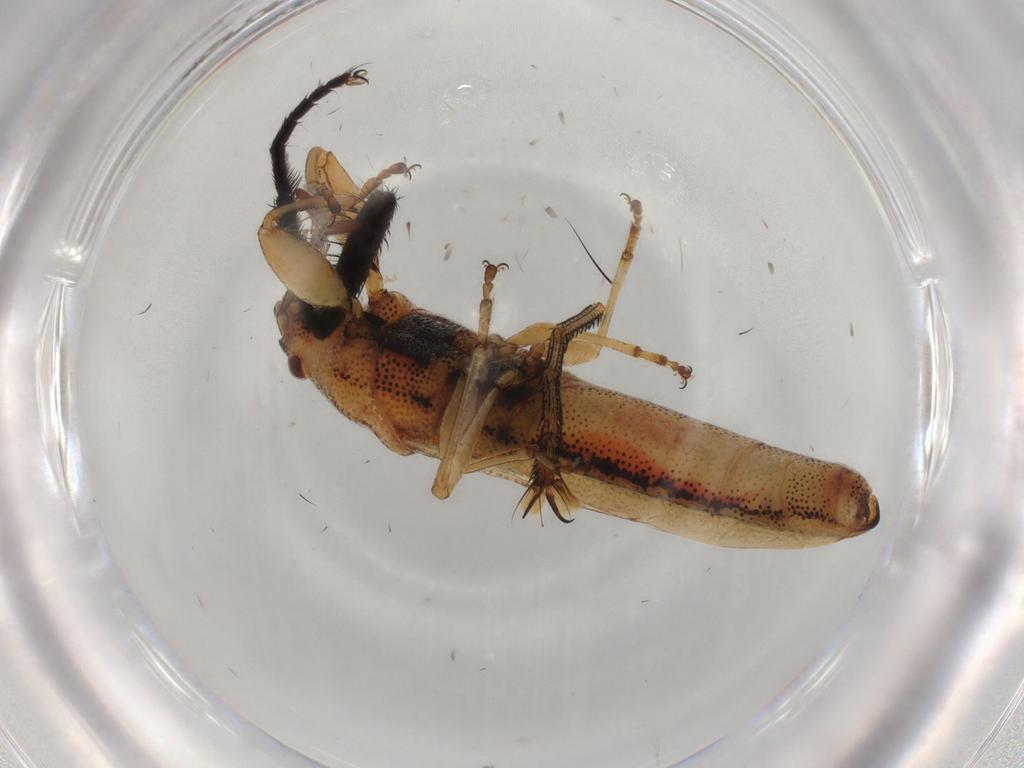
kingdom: Animalia
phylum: Arthropoda
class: Insecta
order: Hemiptera
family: Pachygronthidae
